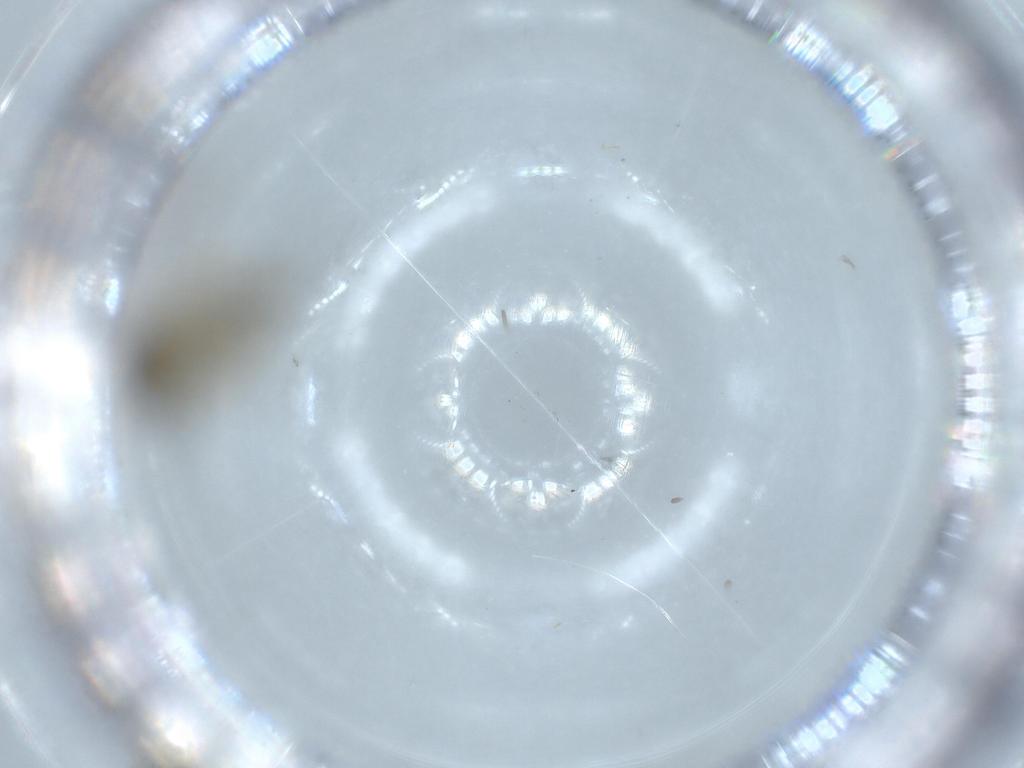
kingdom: Animalia
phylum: Arthropoda
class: Insecta
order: Diptera
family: Ceratopogonidae
